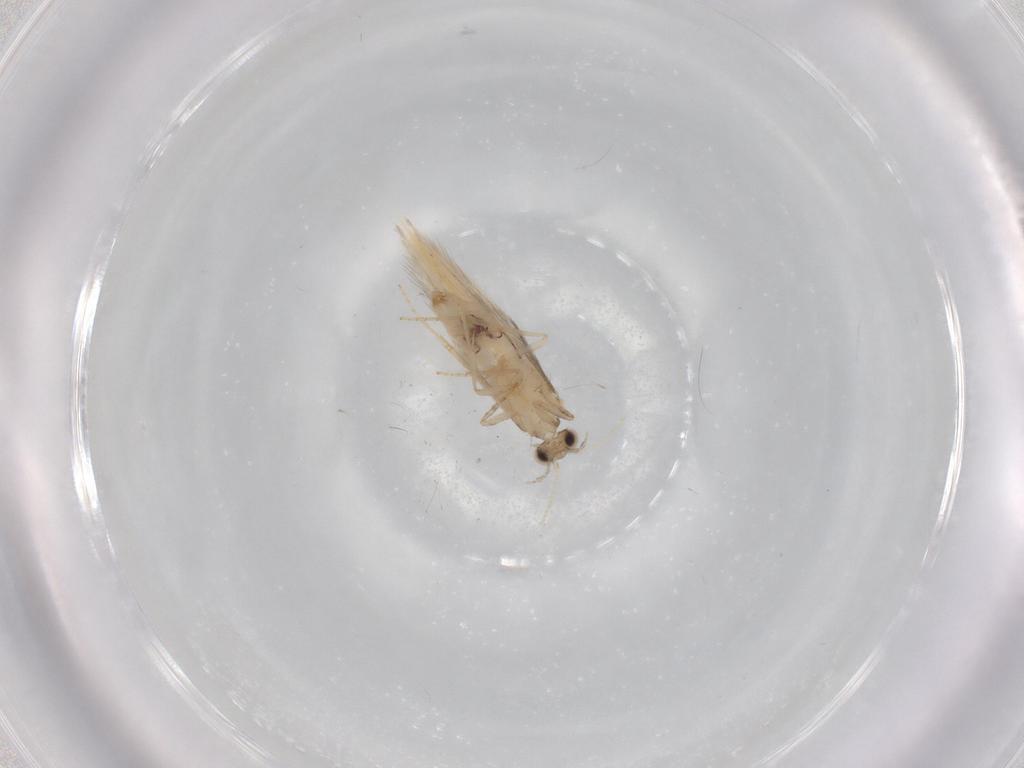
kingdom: Animalia
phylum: Arthropoda
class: Insecta
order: Trichoptera
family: Hydroptilidae
